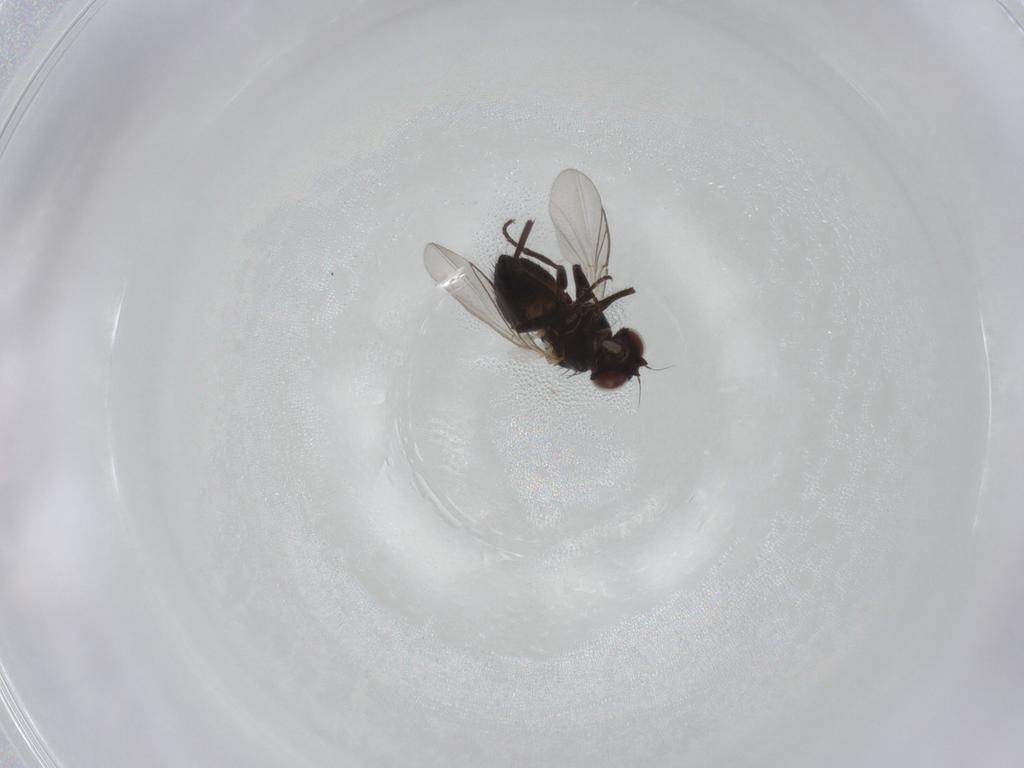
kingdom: Animalia
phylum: Arthropoda
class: Insecta
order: Diptera
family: Agromyzidae
